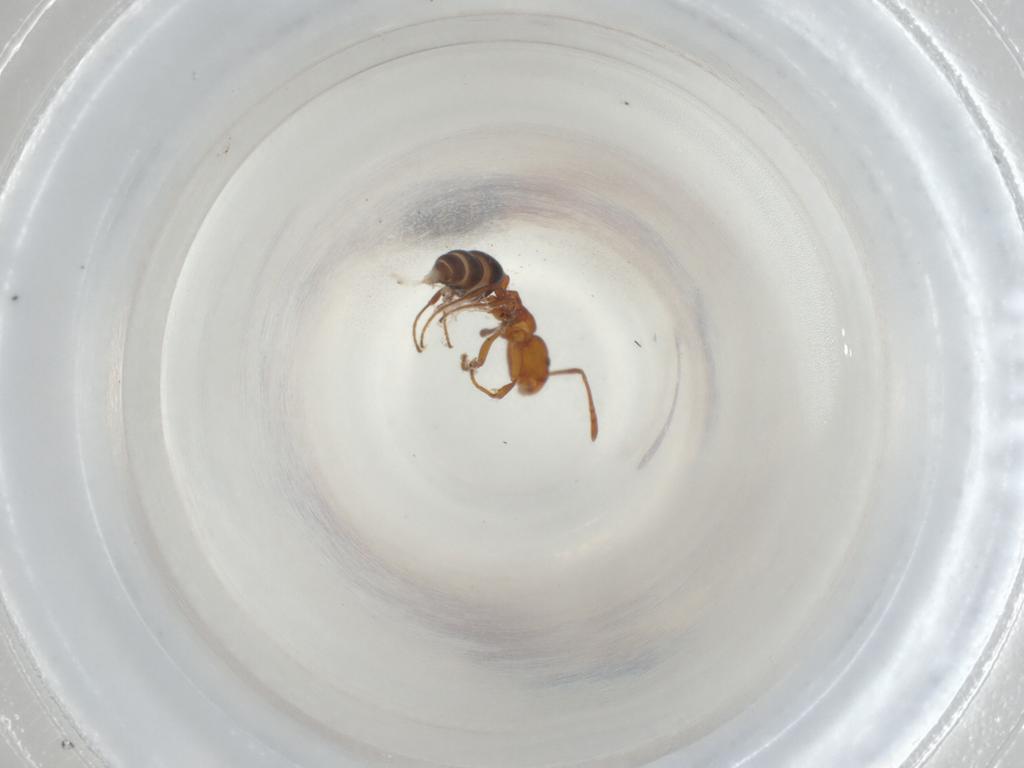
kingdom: Animalia
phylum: Arthropoda
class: Insecta
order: Hymenoptera
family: Formicidae
